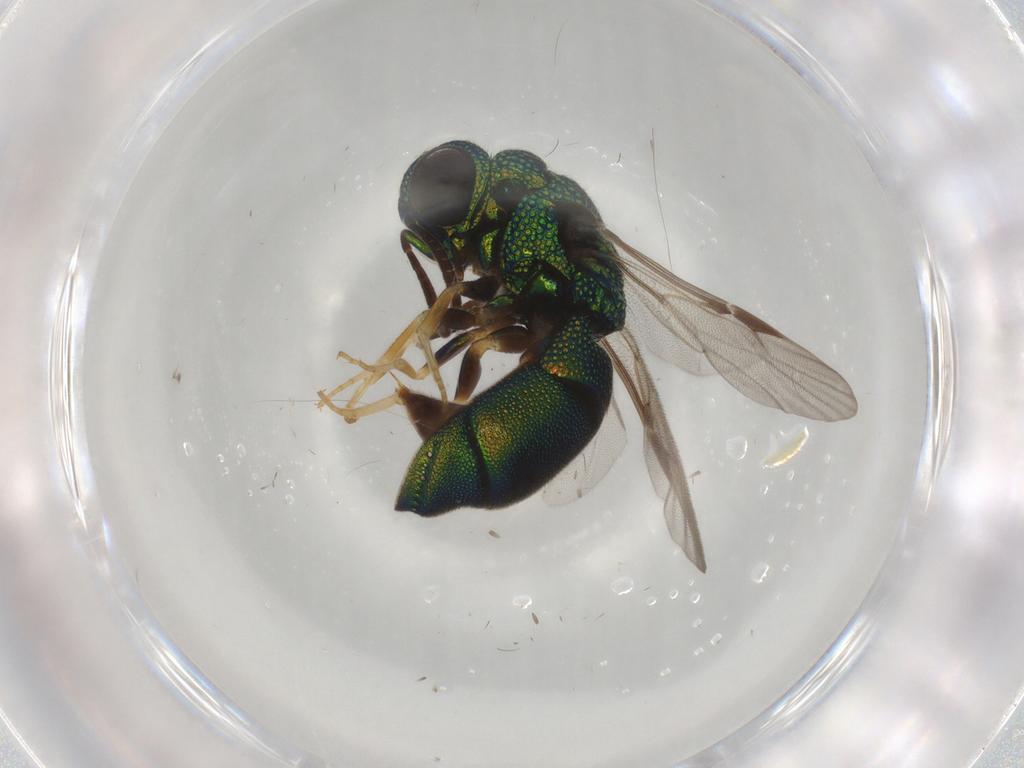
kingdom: Animalia
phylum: Arthropoda
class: Insecta
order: Hymenoptera
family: Chrysididae
